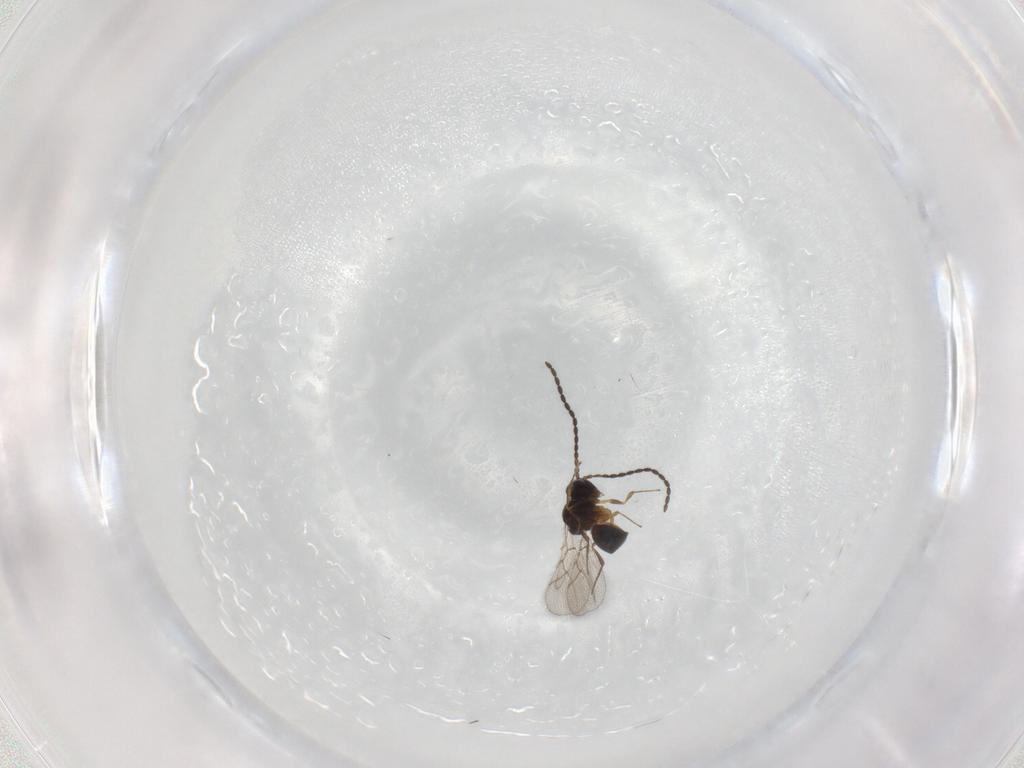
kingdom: Animalia
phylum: Arthropoda
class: Insecta
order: Hymenoptera
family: Figitidae
